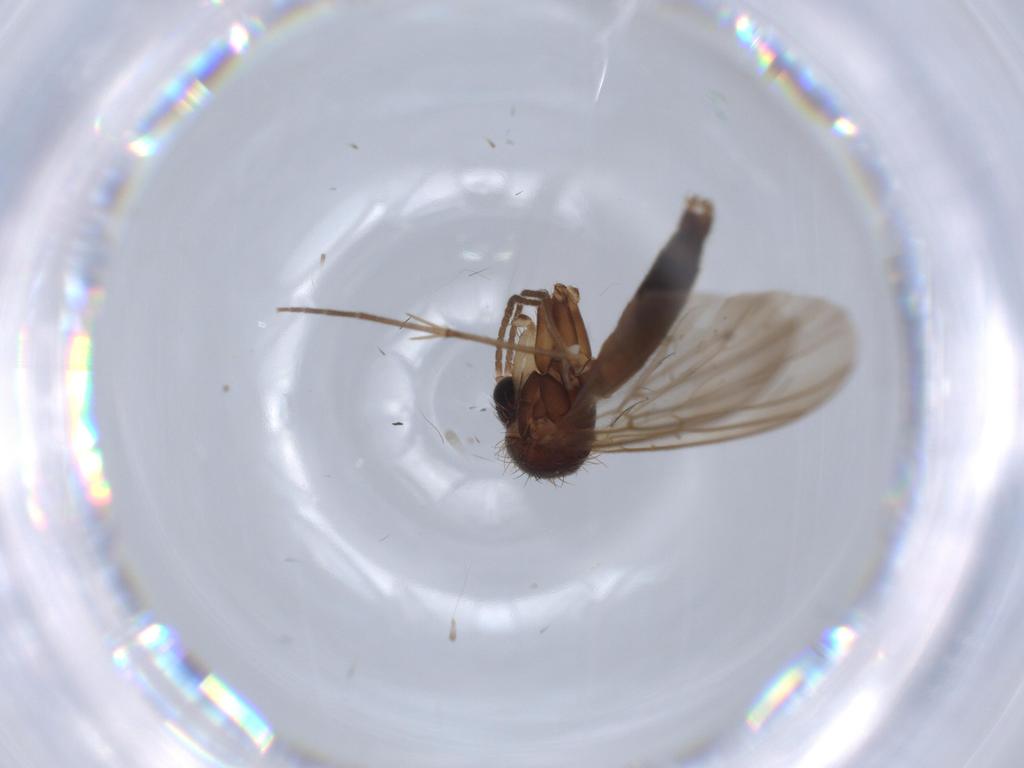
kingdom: Animalia
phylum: Arthropoda
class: Insecta
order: Diptera
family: Mycetophilidae
